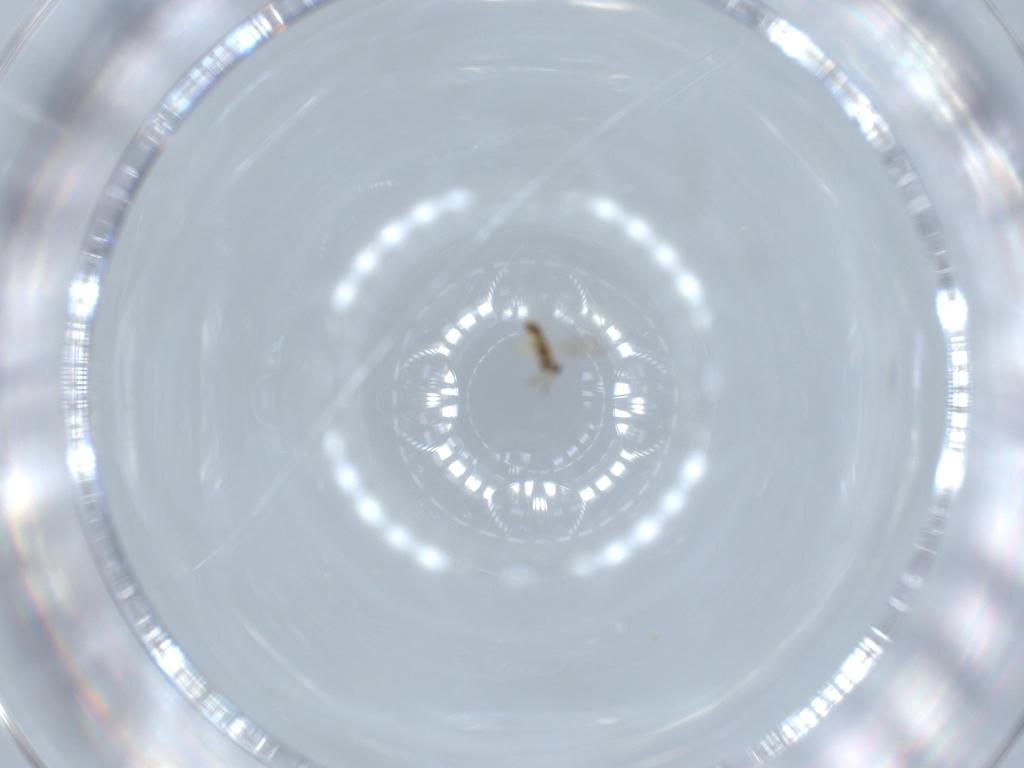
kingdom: Animalia
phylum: Arthropoda
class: Insecta
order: Hymenoptera
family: Aphelinidae
